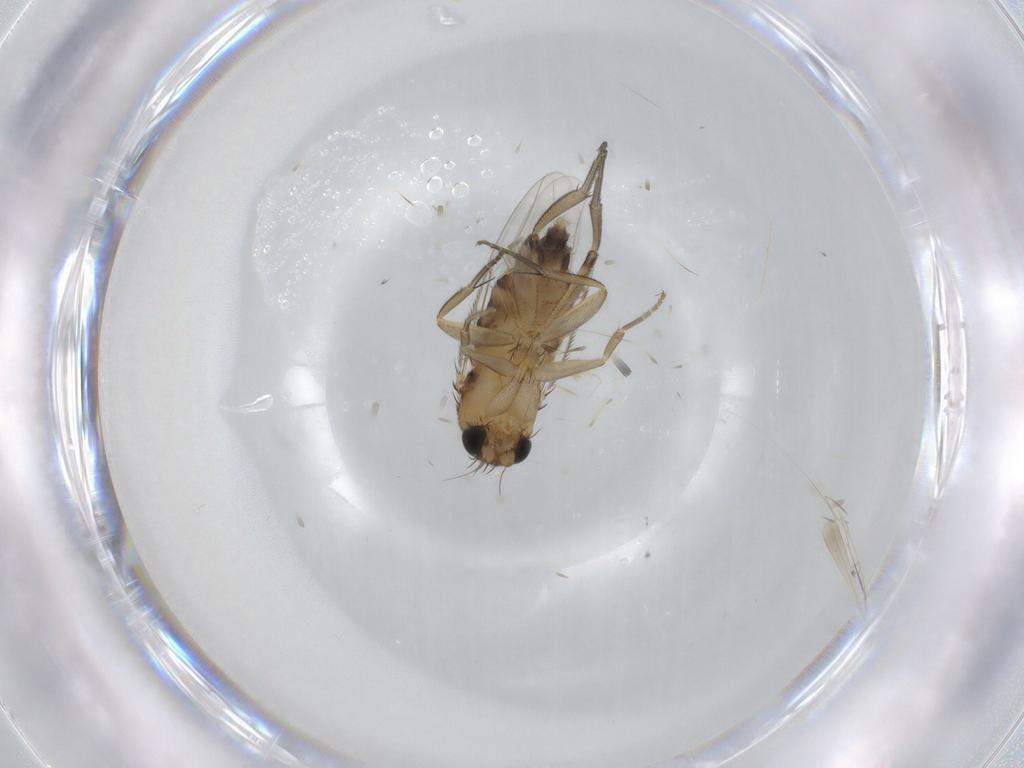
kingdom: Animalia
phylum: Arthropoda
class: Insecta
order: Diptera
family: Phoridae
